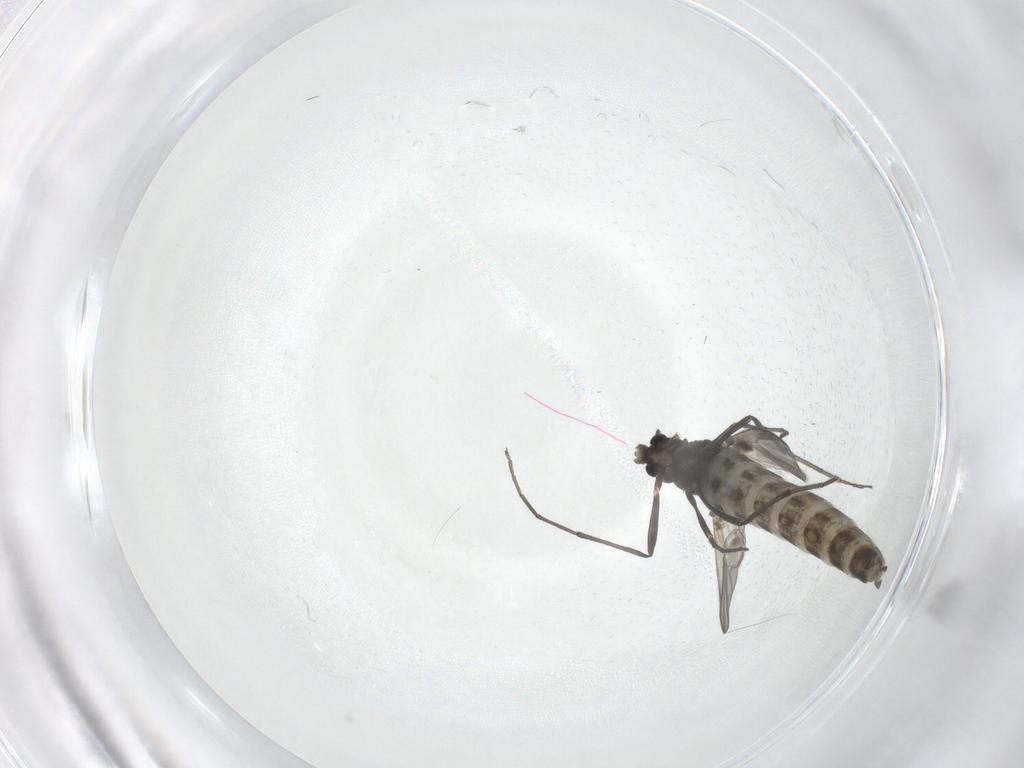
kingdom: Animalia
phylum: Arthropoda
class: Insecta
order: Diptera
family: Chironomidae
